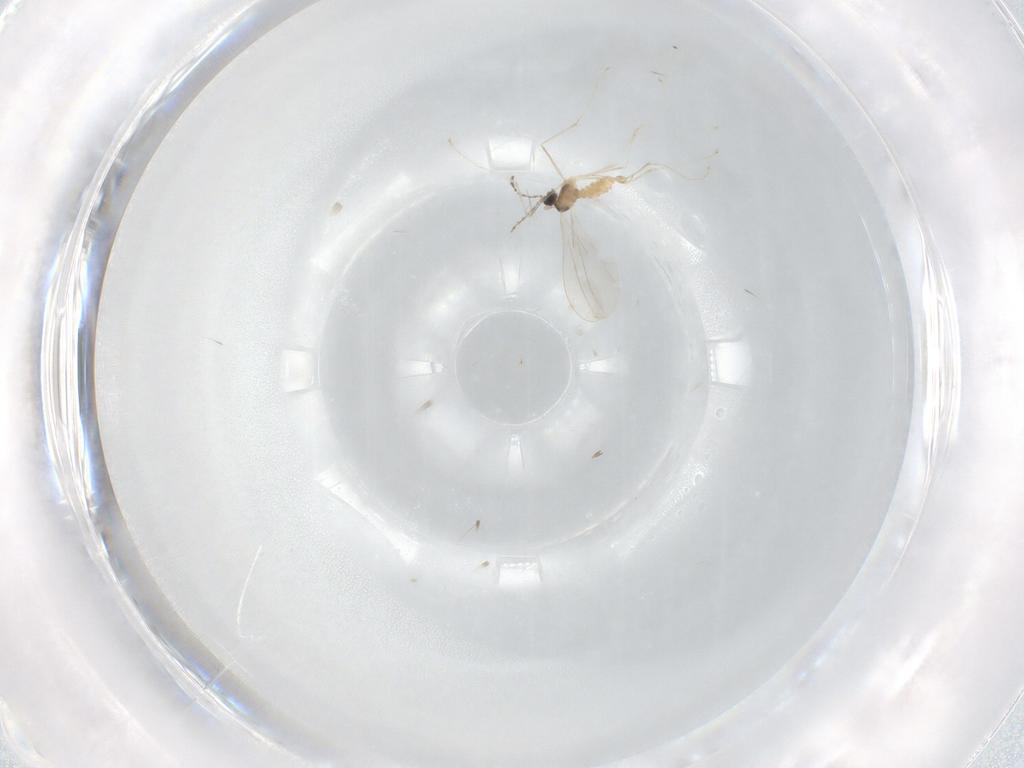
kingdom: Animalia
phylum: Arthropoda
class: Insecta
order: Diptera
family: Cecidomyiidae
